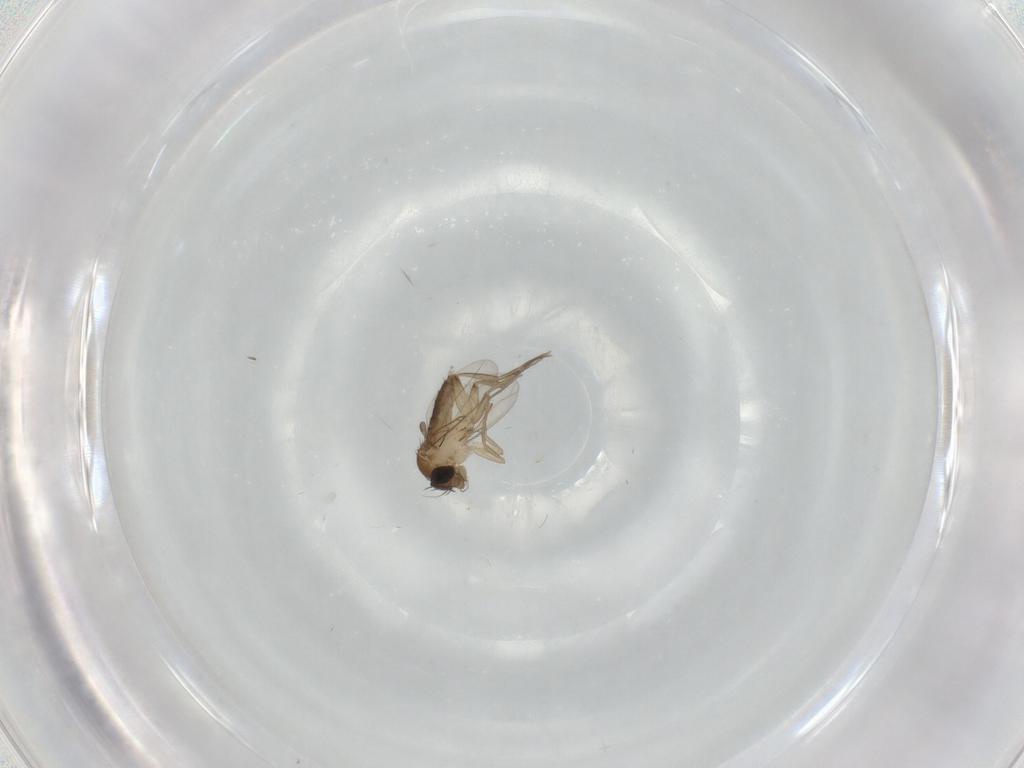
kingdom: Animalia
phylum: Arthropoda
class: Insecta
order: Diptera
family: Phoridae
